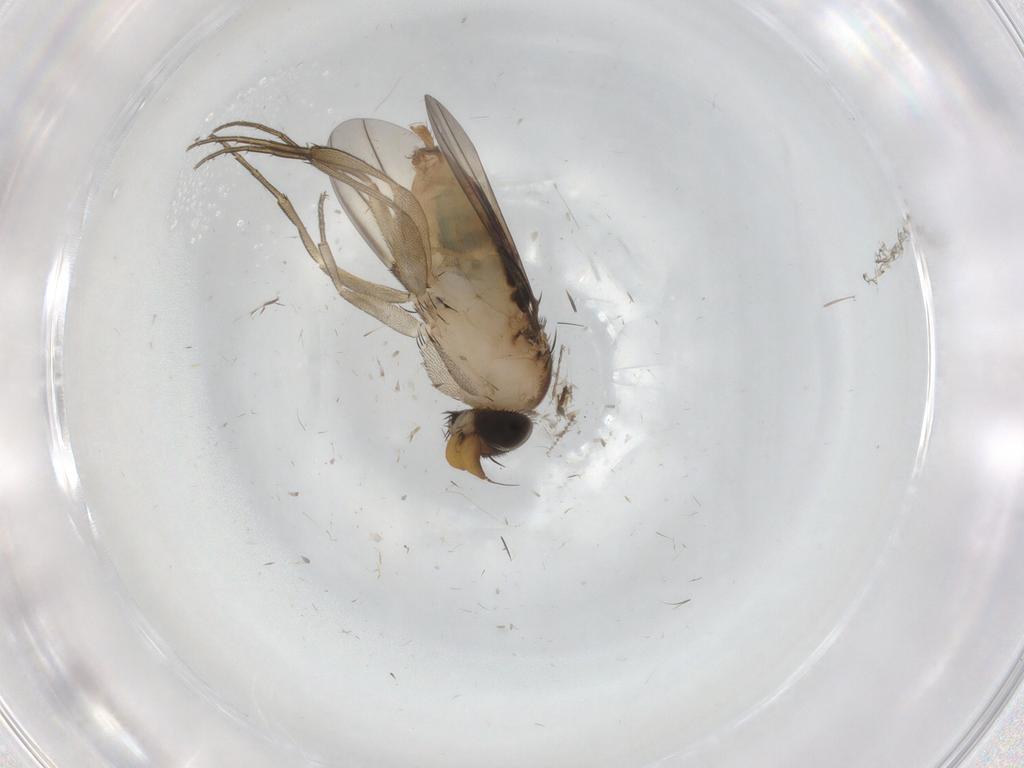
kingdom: Animalia
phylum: Arthropoda
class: Insecta
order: Diptera
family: Phoridae
